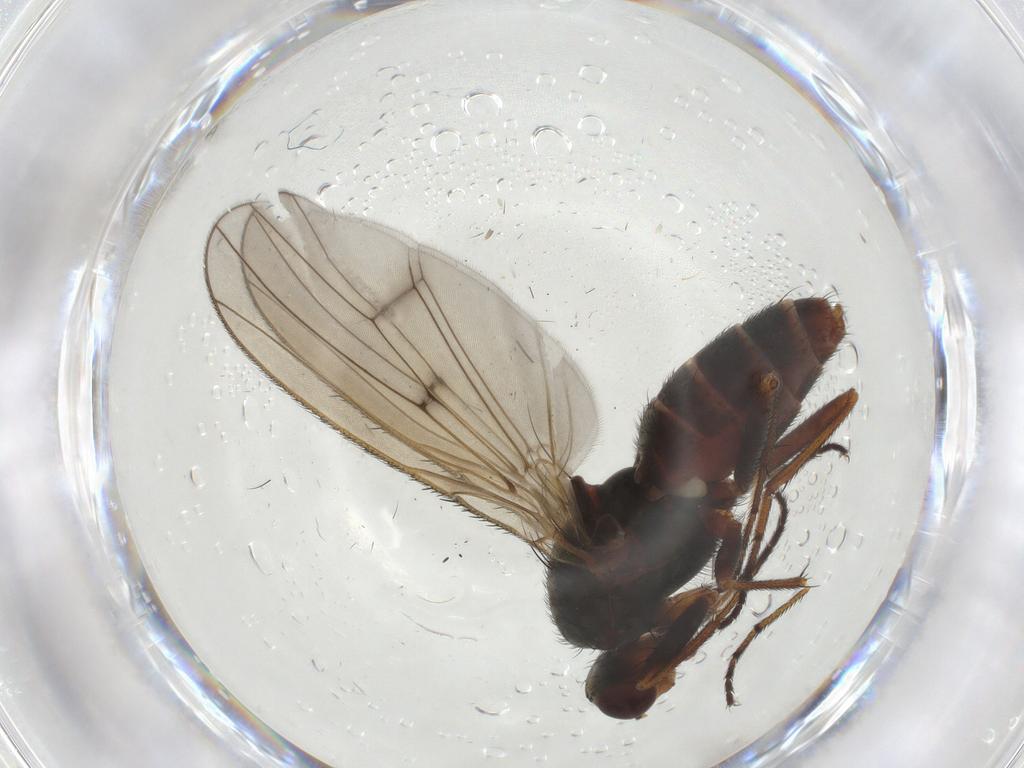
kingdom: Animalia
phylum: Arthropoda
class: Insecta
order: Diptera
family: Heleomyzidae
